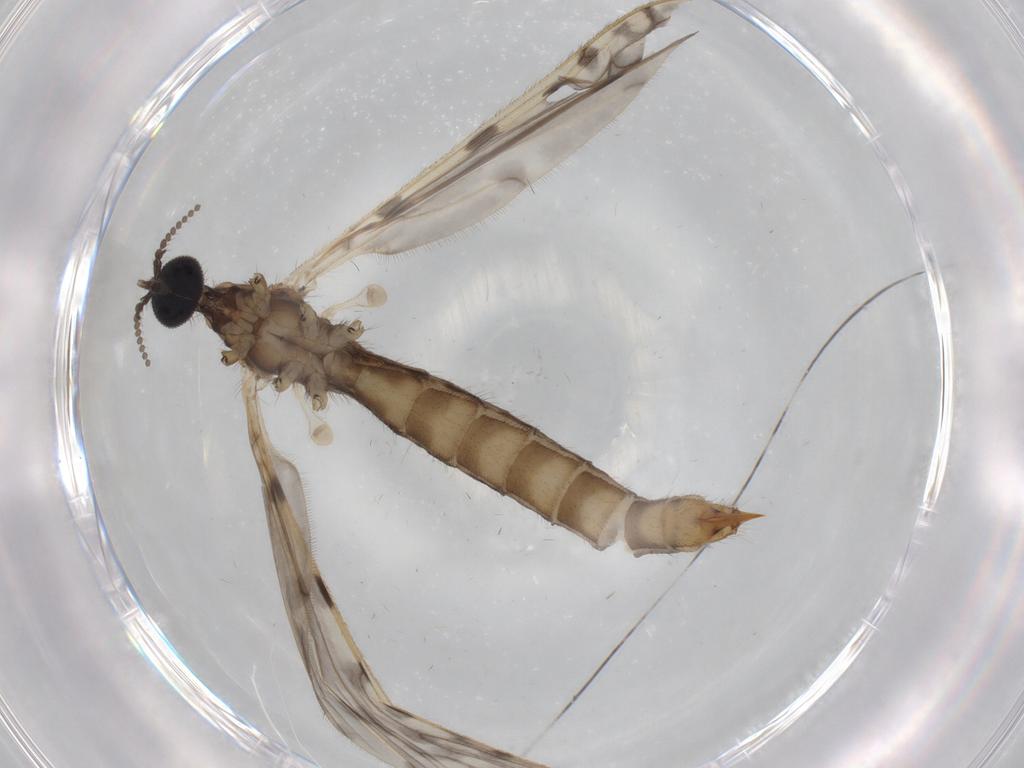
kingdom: Animalia
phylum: Arthropoda
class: Insecta
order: Diptera
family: Limoniidae
